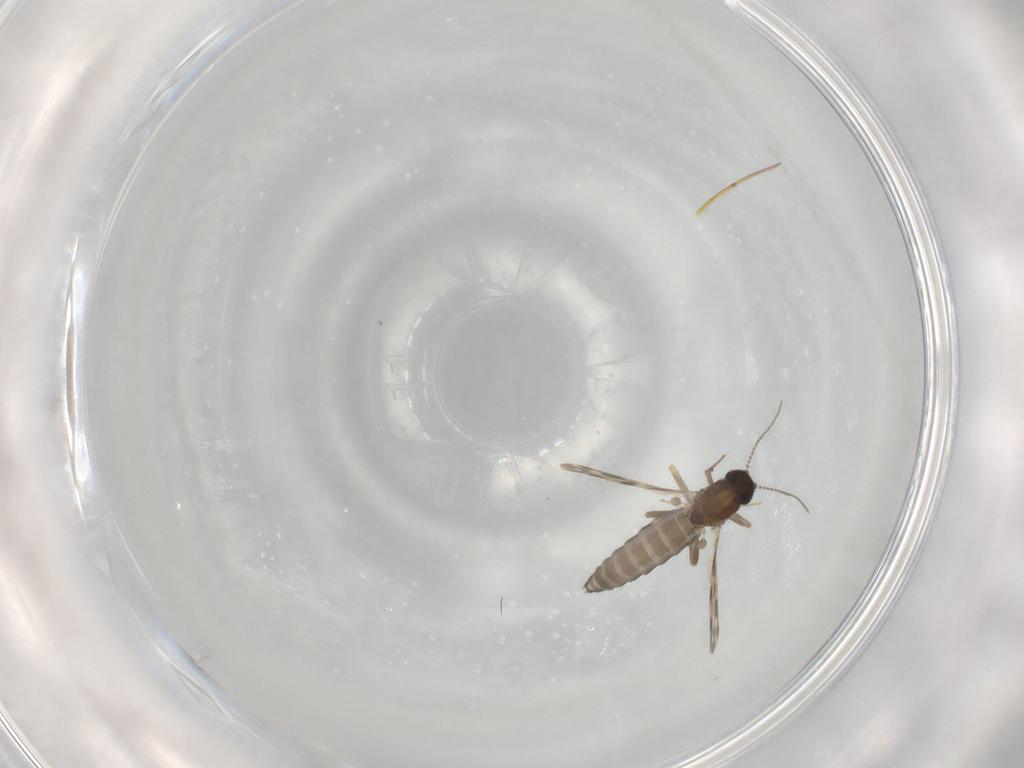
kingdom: Animalia
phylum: Arthropoda
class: Insecta
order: Diptera
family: Ceratopogonidae
